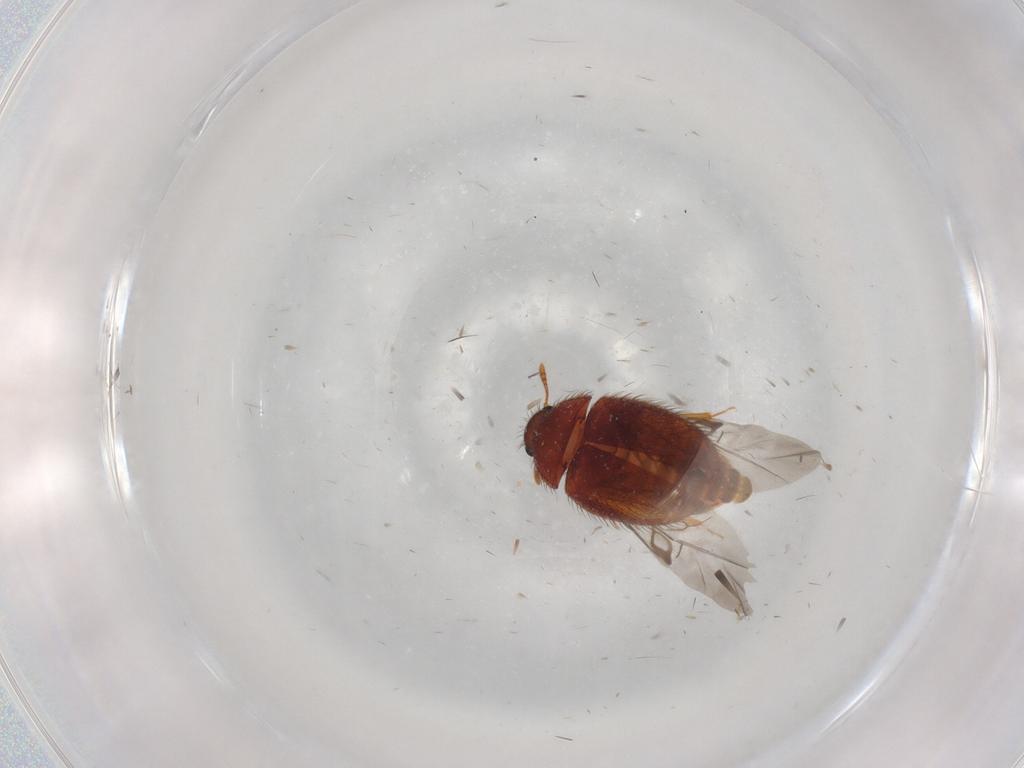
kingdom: Animalia
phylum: Arthropoda
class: Insecta
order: Coleoptera
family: Biphyllidae
